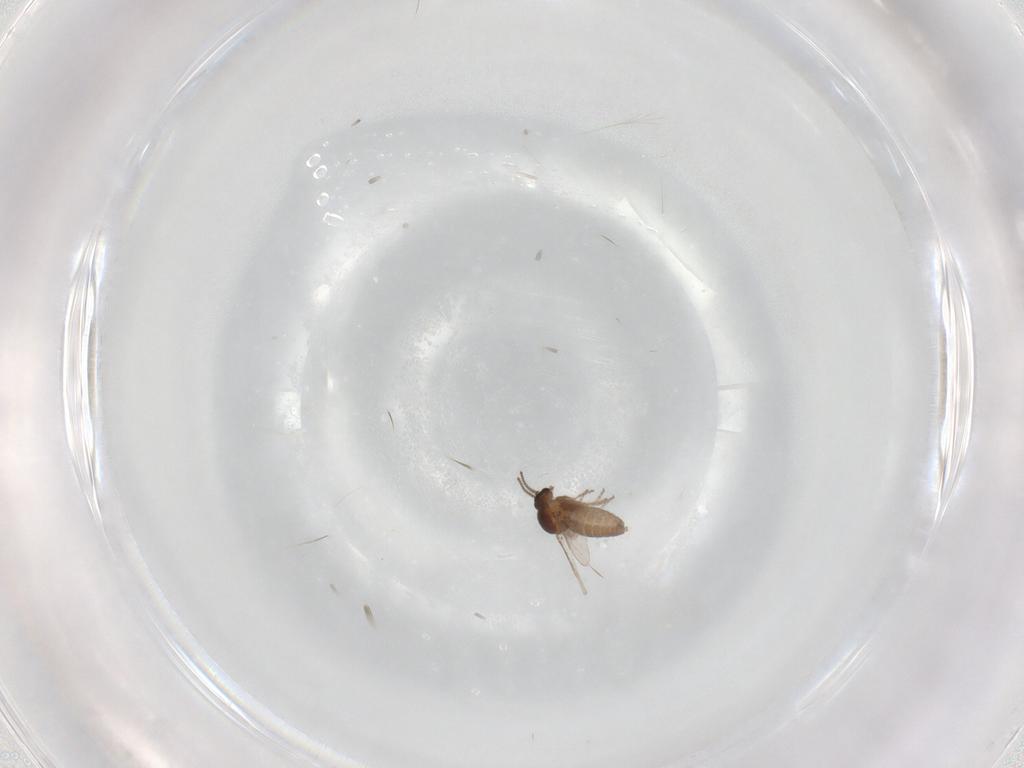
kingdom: Animalia
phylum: Arthropoda
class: Insecta
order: Diptera
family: Ceratopogonidae
